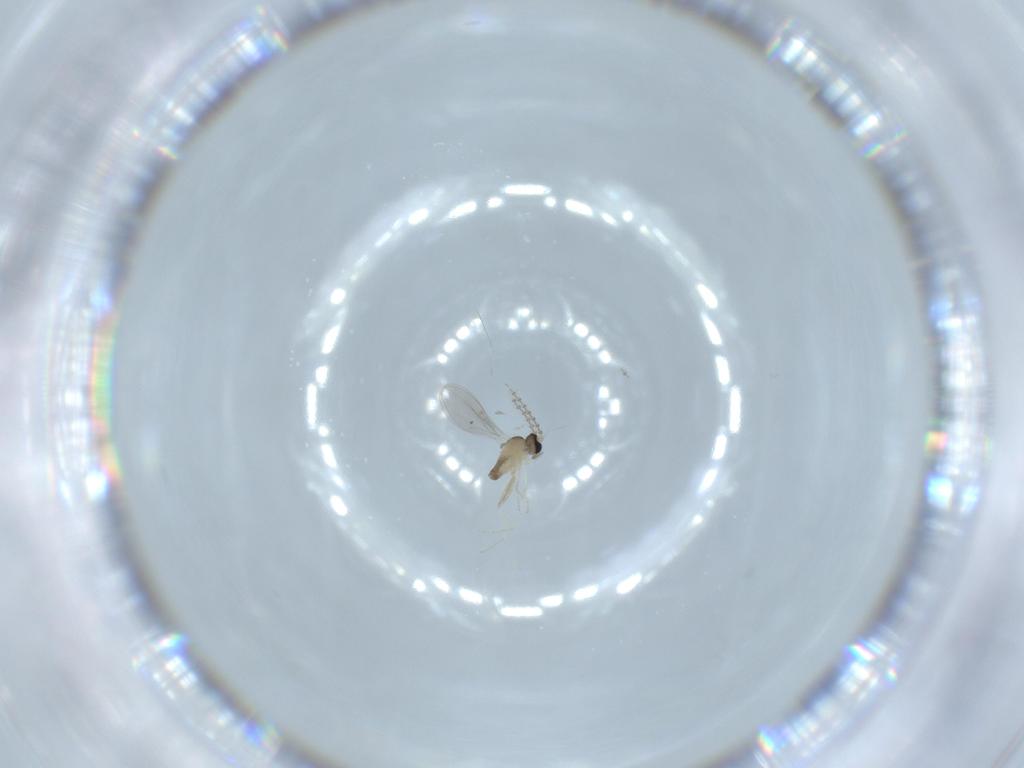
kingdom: Animalia
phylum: Arthropoda
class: Insecta
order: Diptera
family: Cecidomyiidae
